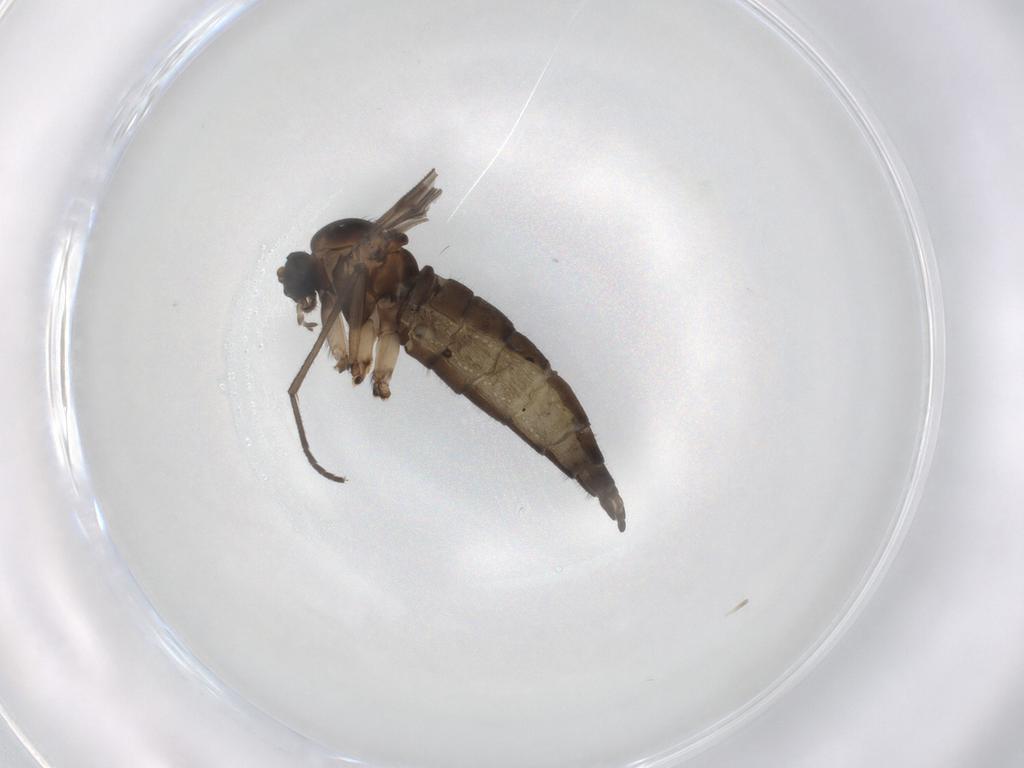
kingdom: Animalia
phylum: Arthropoda
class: Insecta
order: Diptera
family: Sciaridae
